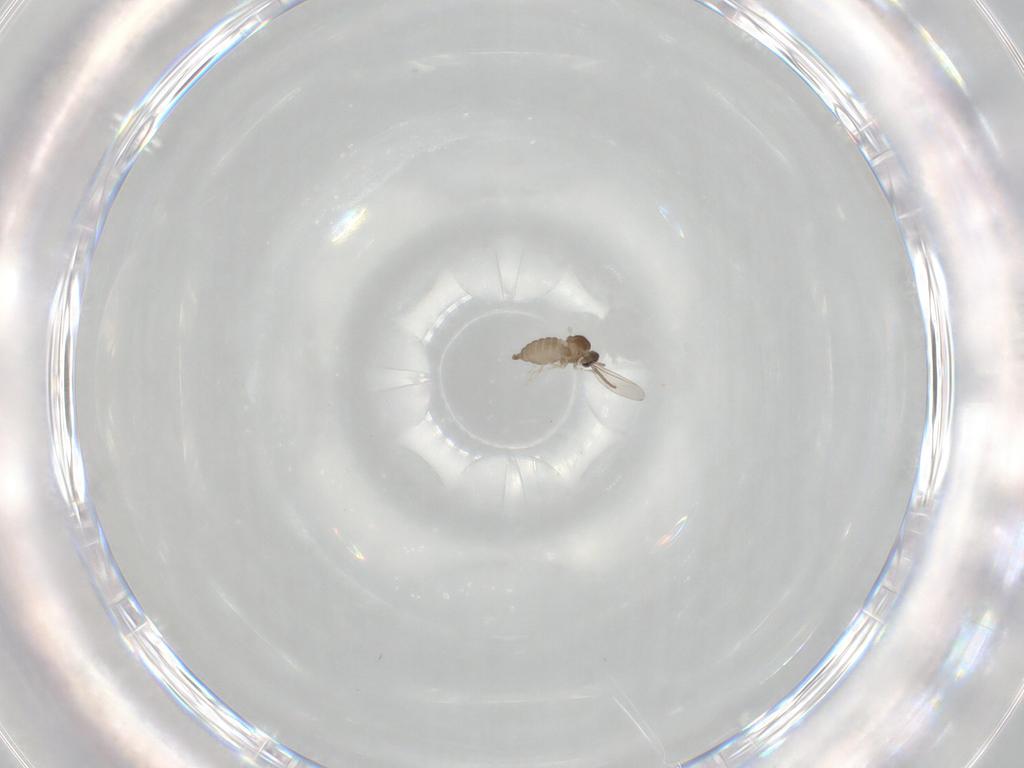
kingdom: Animalia
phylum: Arthropoda
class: Insecta
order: Diptera
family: Cecidomyiidae
